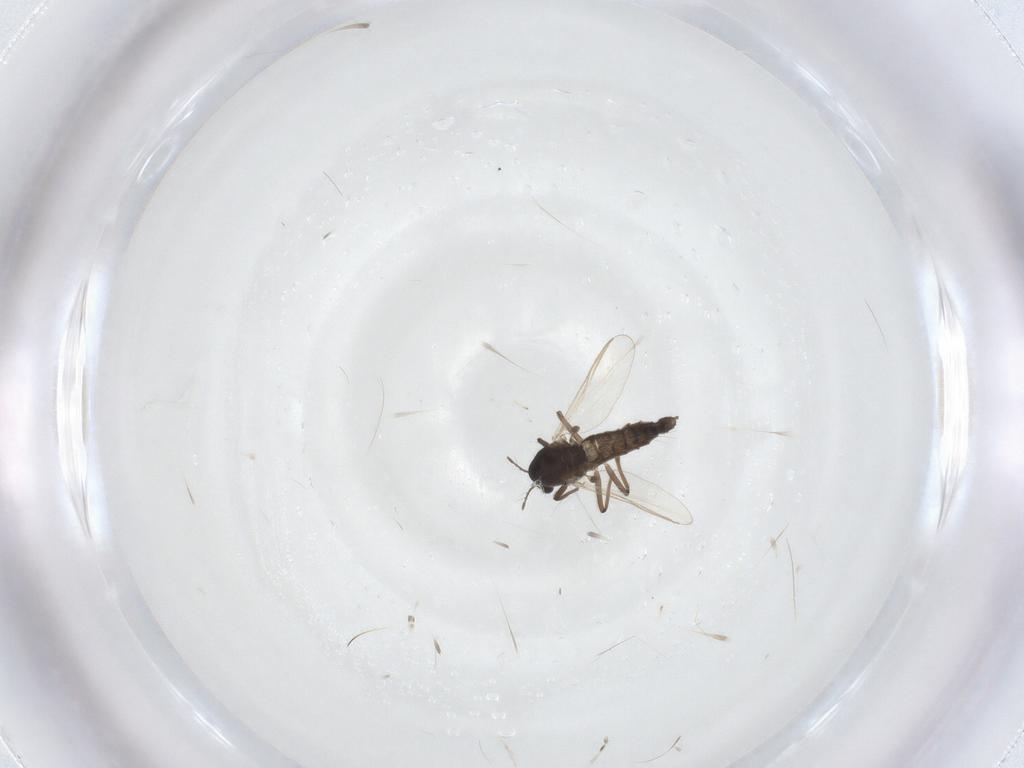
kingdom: Animalia
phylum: Arthropoda
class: Insecta
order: Diptera
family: Chironomidae
